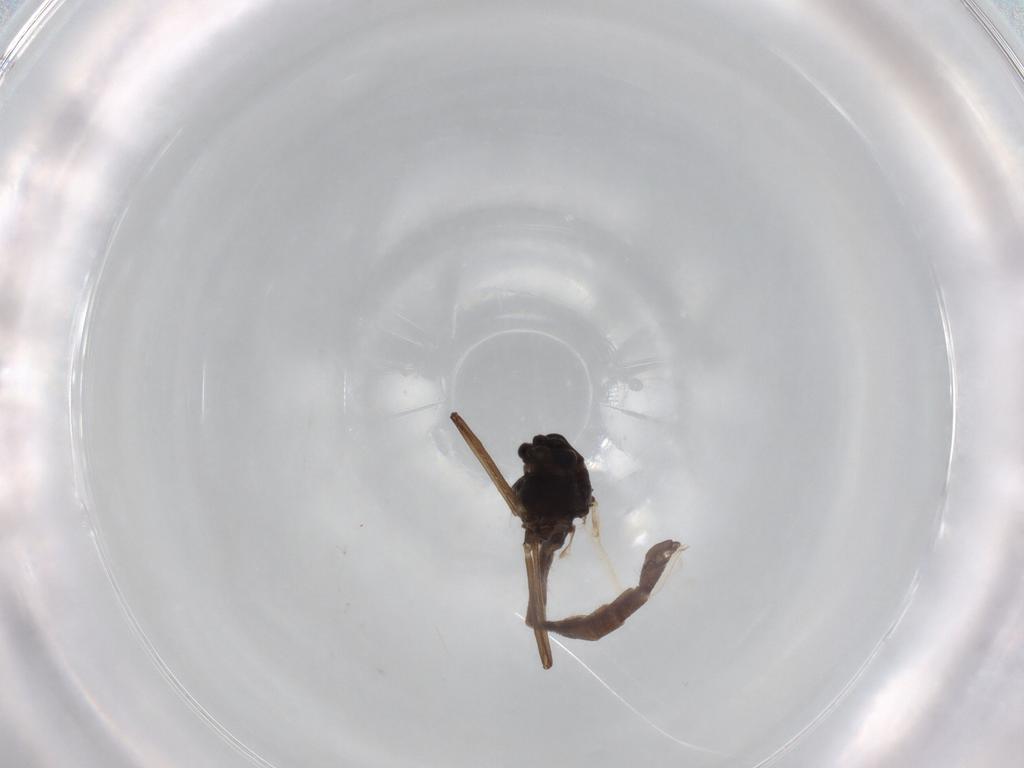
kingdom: Animalia
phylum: Arthropoda
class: Insecta
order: Diptera
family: Chironomidae
